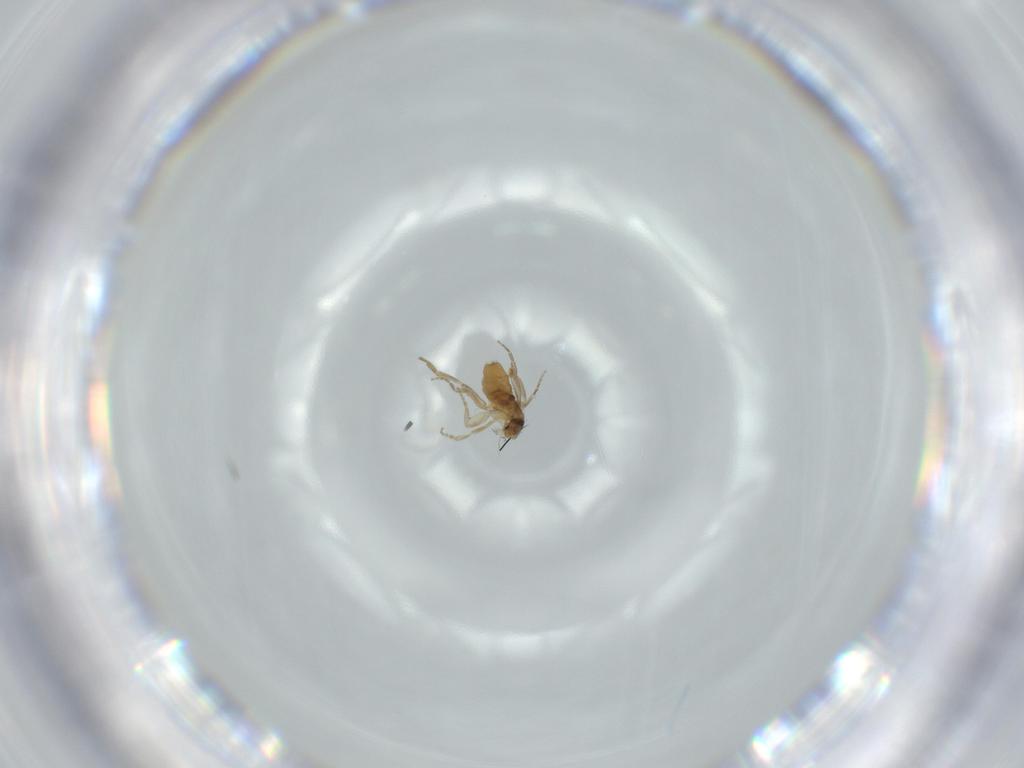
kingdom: Animalia
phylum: Arthropoda
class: Insecta
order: Diptera
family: Phoridae
